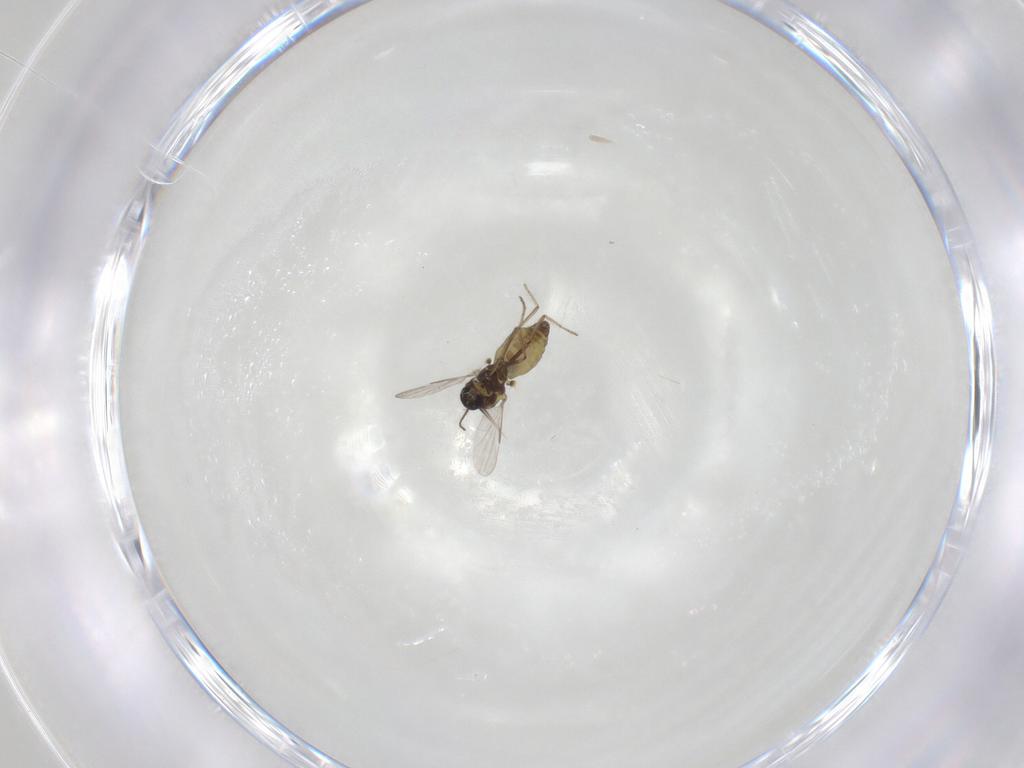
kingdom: Animalia
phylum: Arthropoda
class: Insecta
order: Diptera
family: Ceratopogonidae
